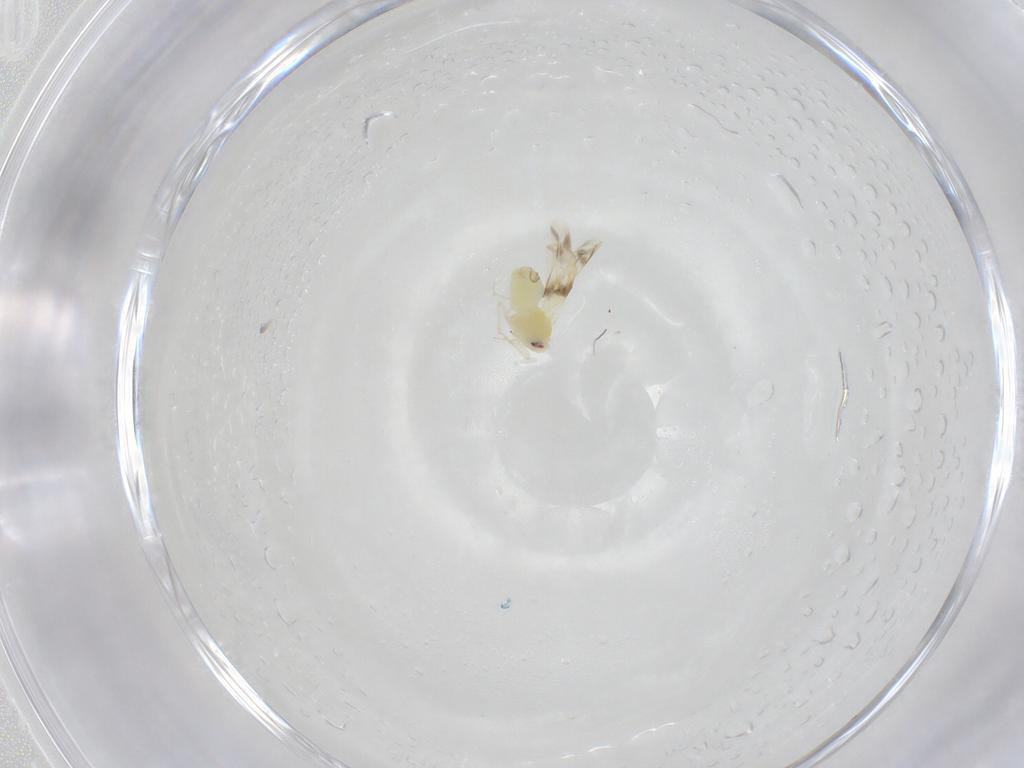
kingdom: Animalia
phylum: Arthropoda
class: Insecta
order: Hemiptera
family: Aleyrodidae
